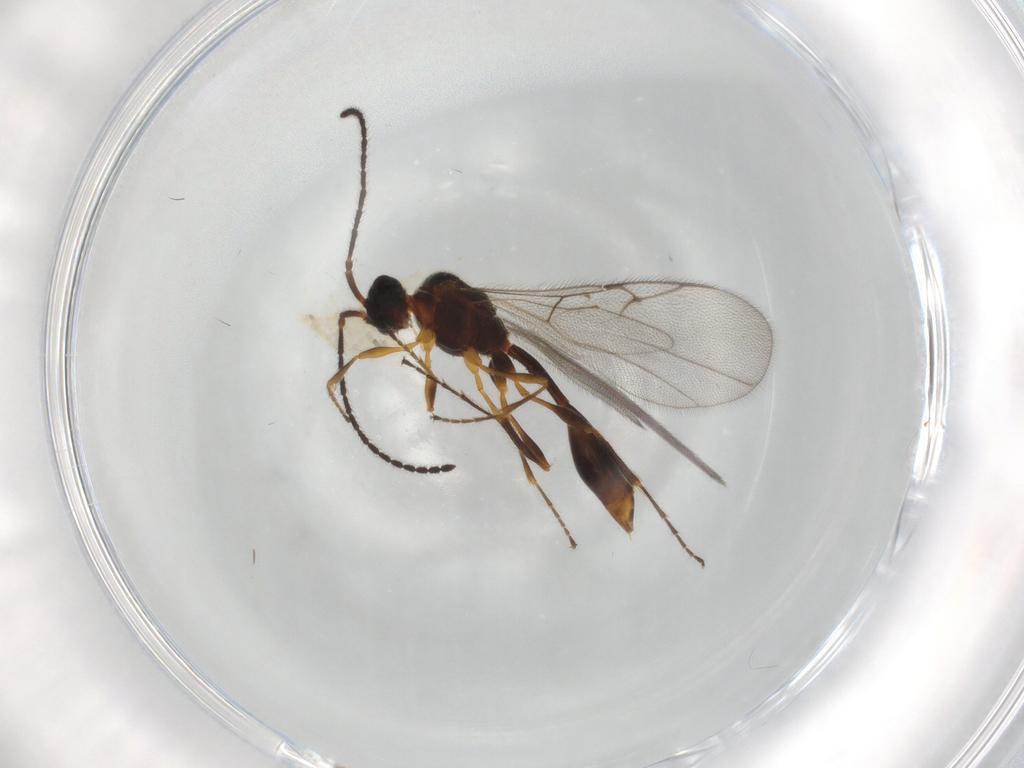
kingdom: Animalia
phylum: Arthropoda
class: Insecta
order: Hymenoptera
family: Diapriidae
